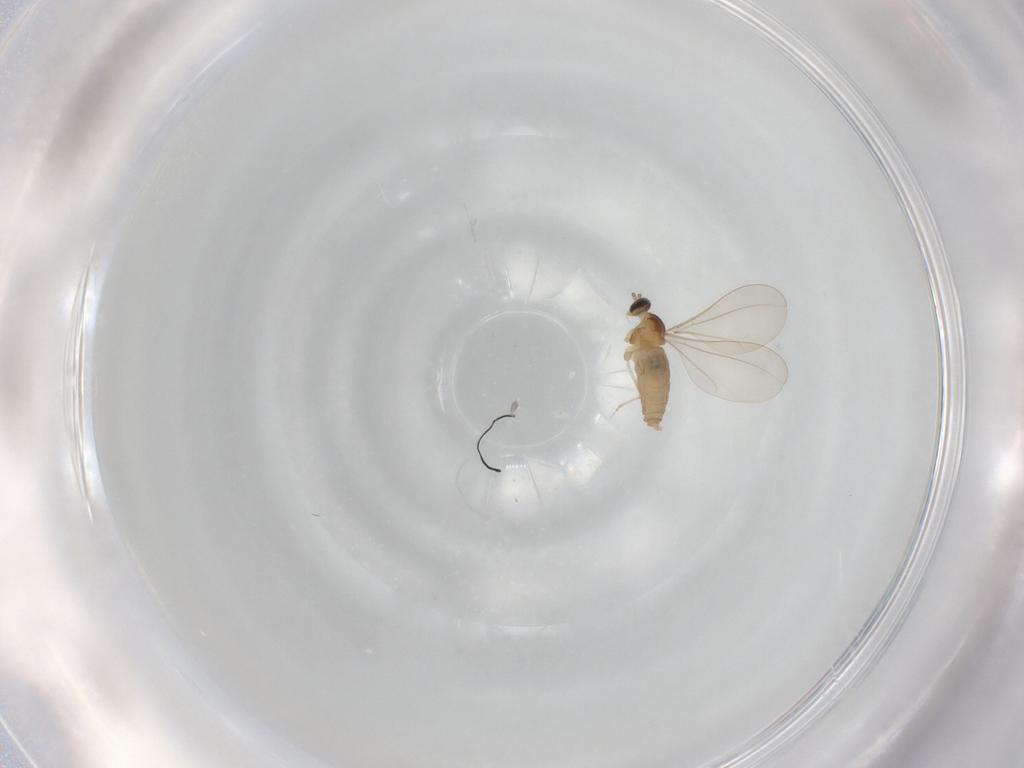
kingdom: Animalia
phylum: Arthropoda
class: Insecta
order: Diptera
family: Cecidomyiidae
